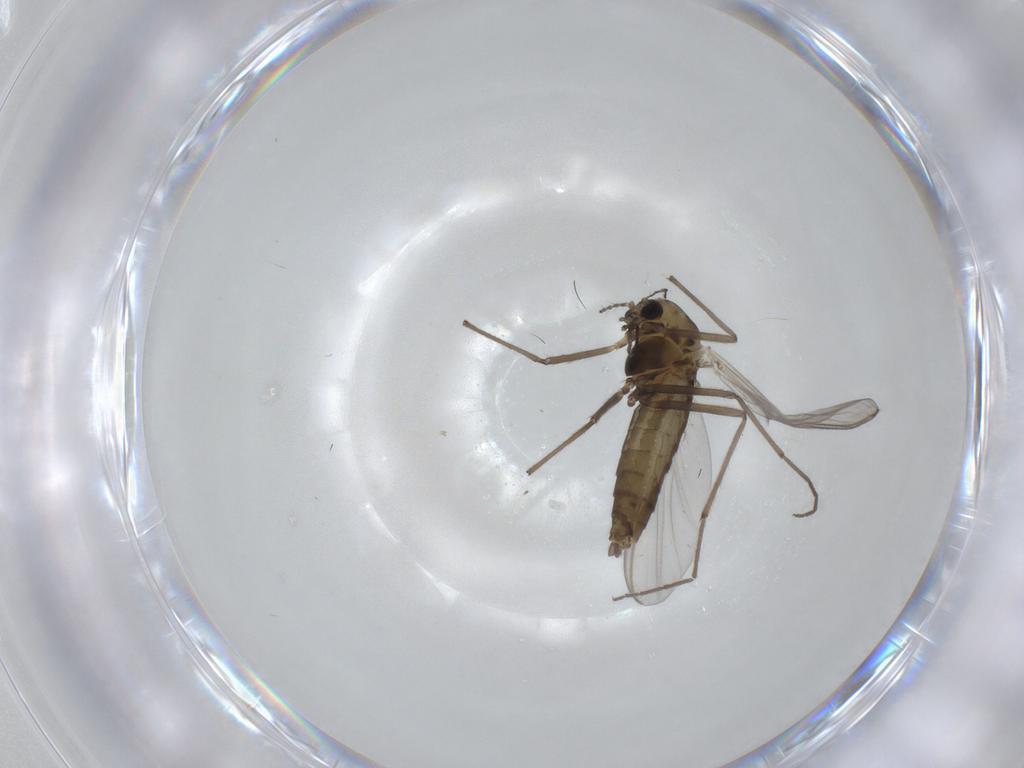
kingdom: Animalia
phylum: Arthropoda
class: Insecta
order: Diptera
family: Chironomidae
